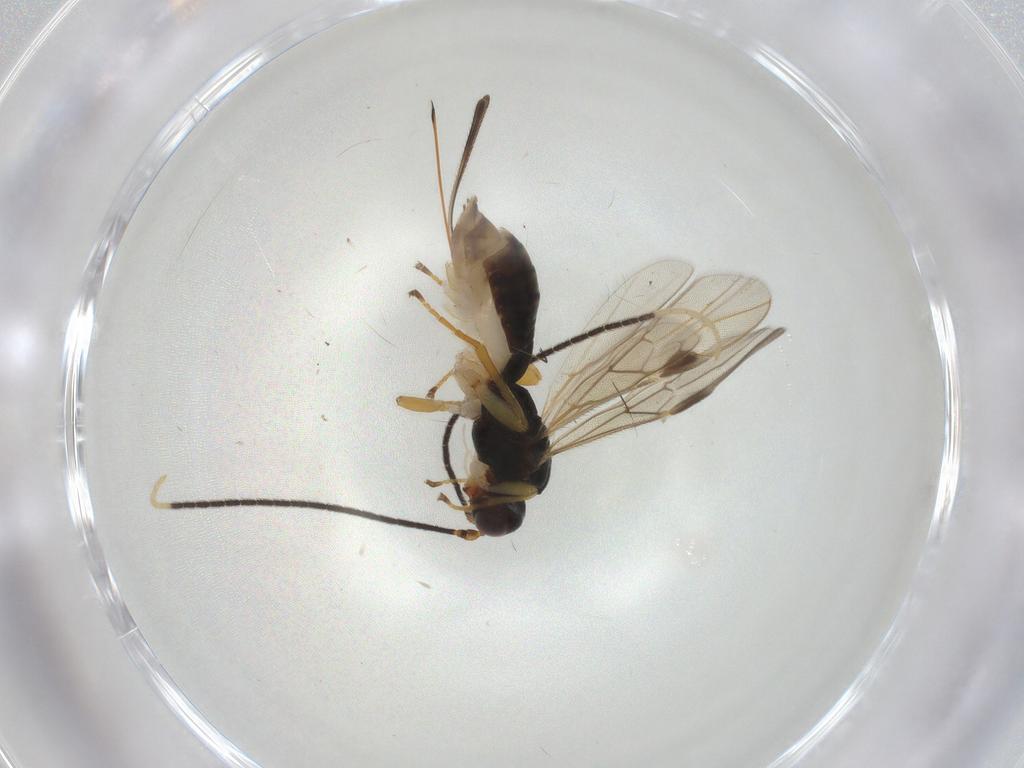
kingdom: Animalia
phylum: Arthropoda
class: Insecta
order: Hymenoptera
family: Braconidae
